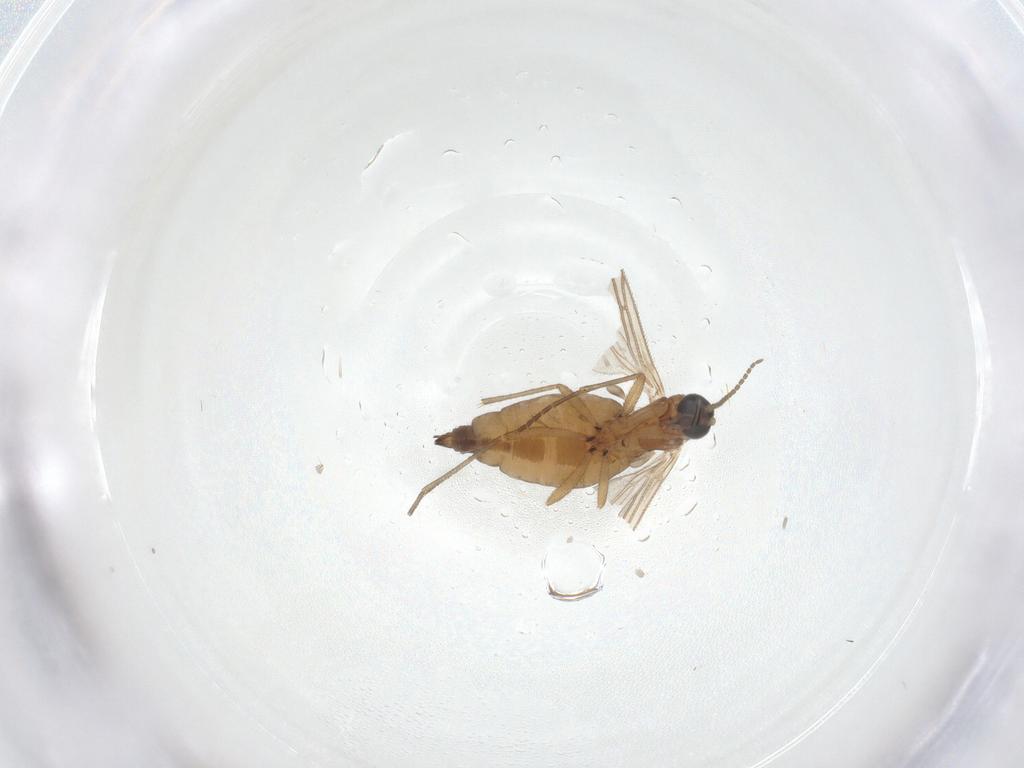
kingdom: Animalia
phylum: Arthropoda
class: Insecta
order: Diptera
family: Sciaridae
